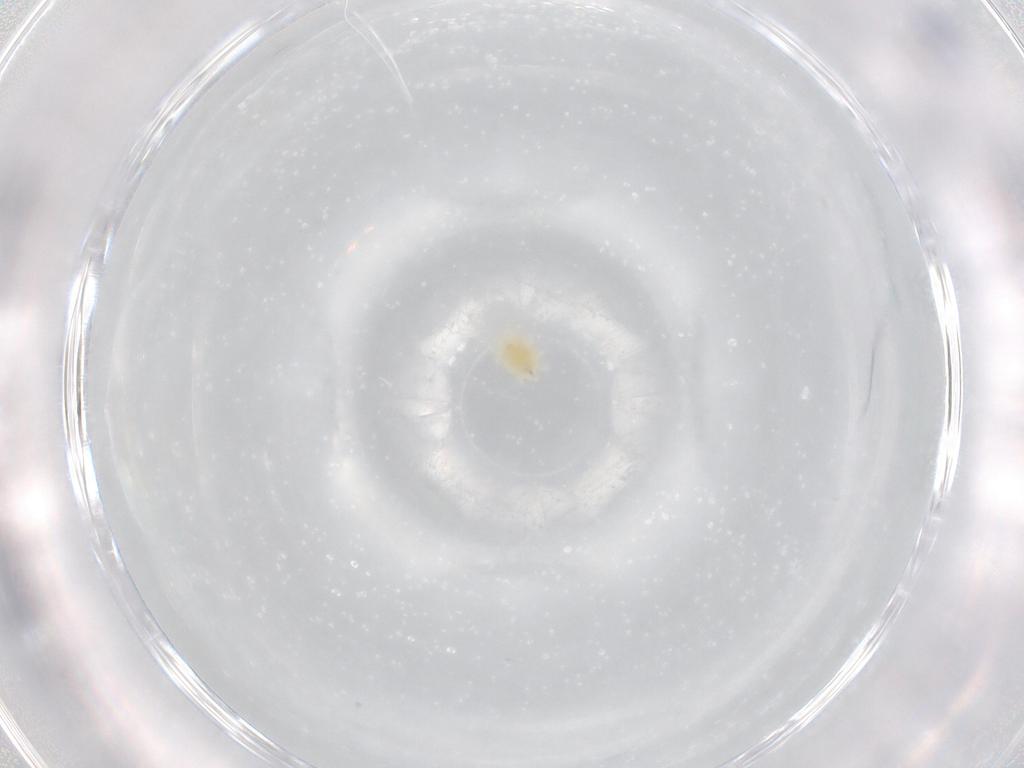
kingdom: Animalia
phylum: Arthropoda
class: Arachnida
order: Trombidiformes
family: Tetranychidae
